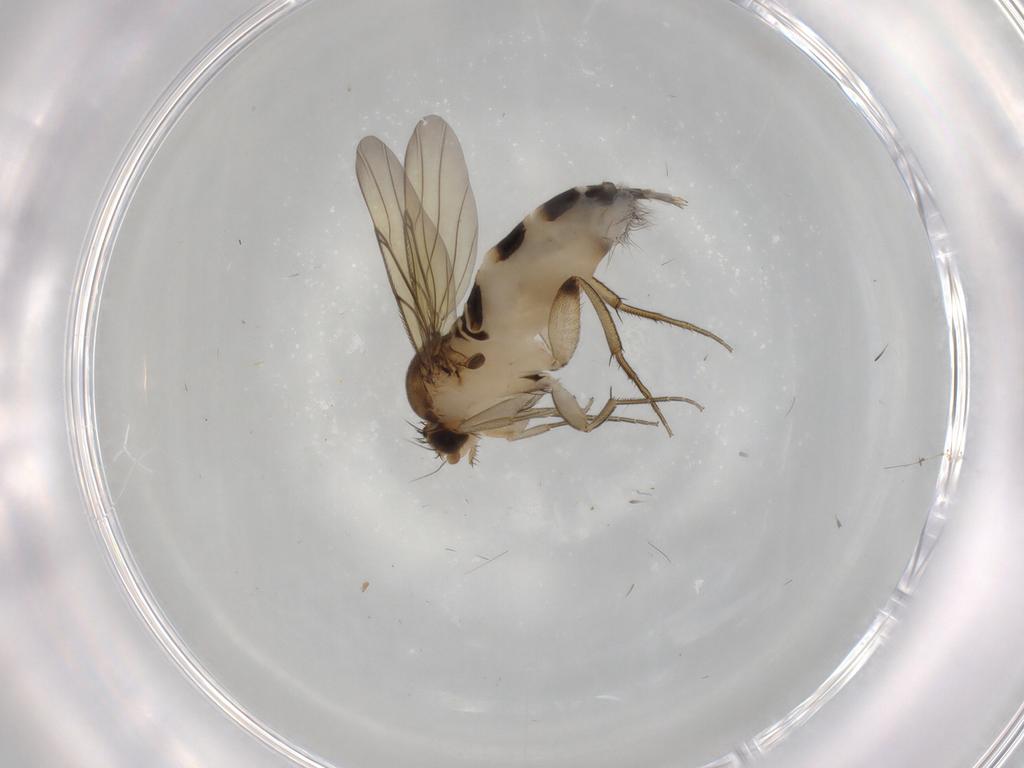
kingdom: Animalia
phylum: Arthropoda
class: Insecta
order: Diptera
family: Phoridae
